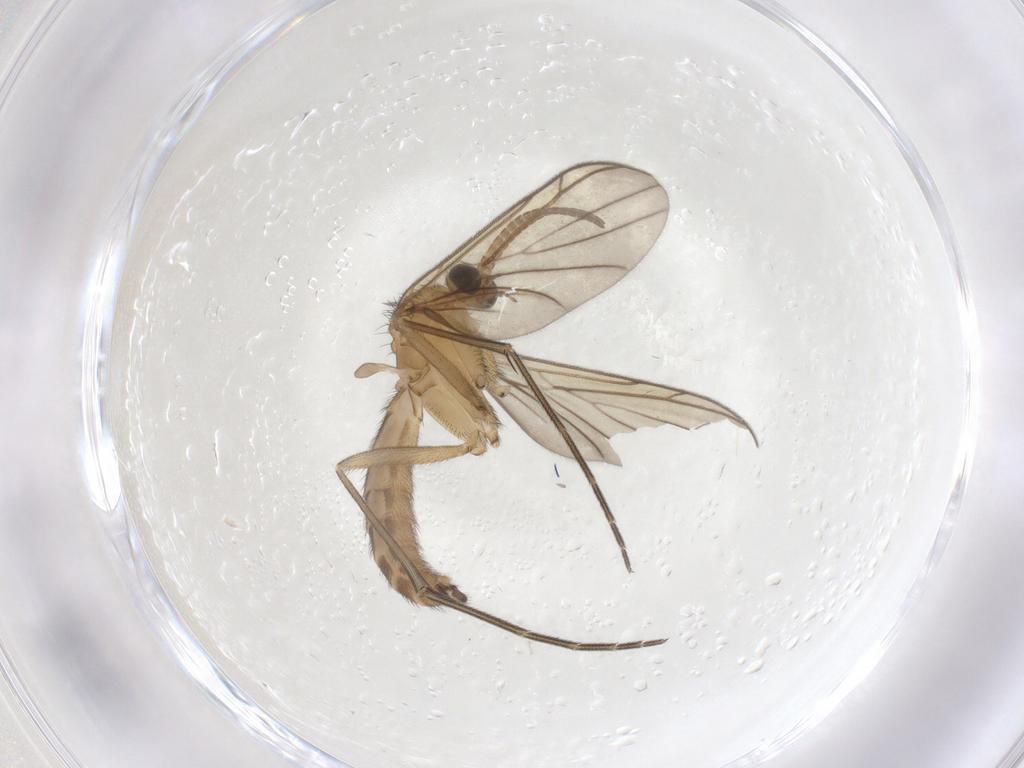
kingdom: Animalia
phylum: Arthropoda
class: Insecta
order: Diptera
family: Keroplatidae
